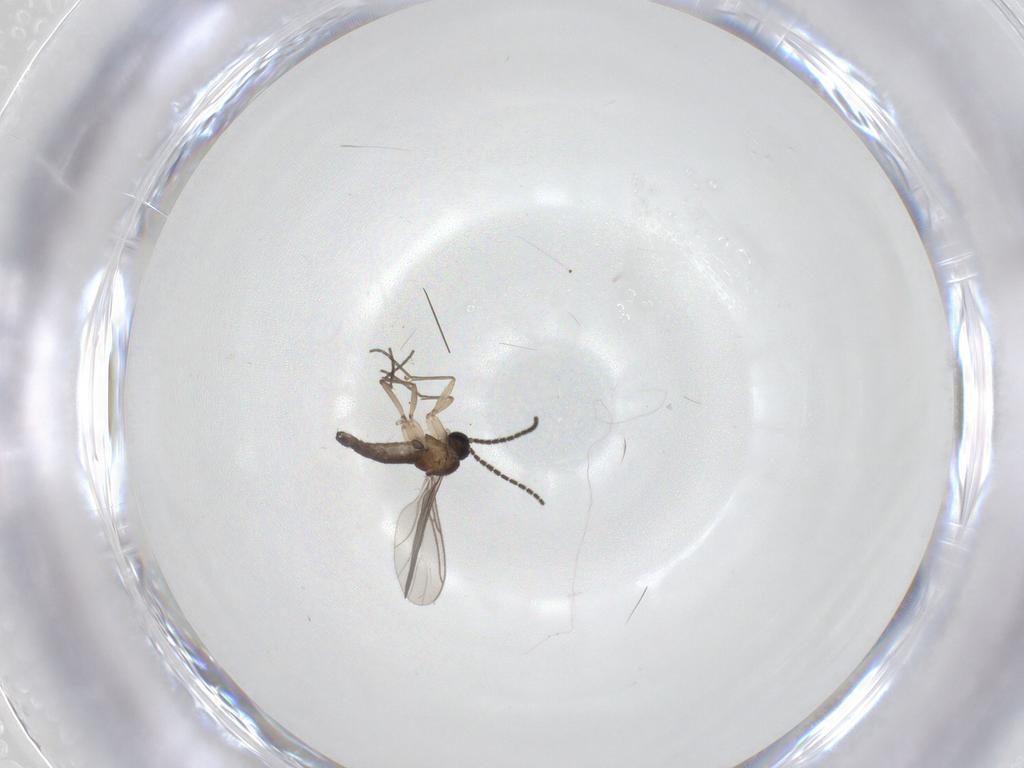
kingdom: Animalia
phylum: Arthropoda
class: Insecta
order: Diptera
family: Sciaridae
